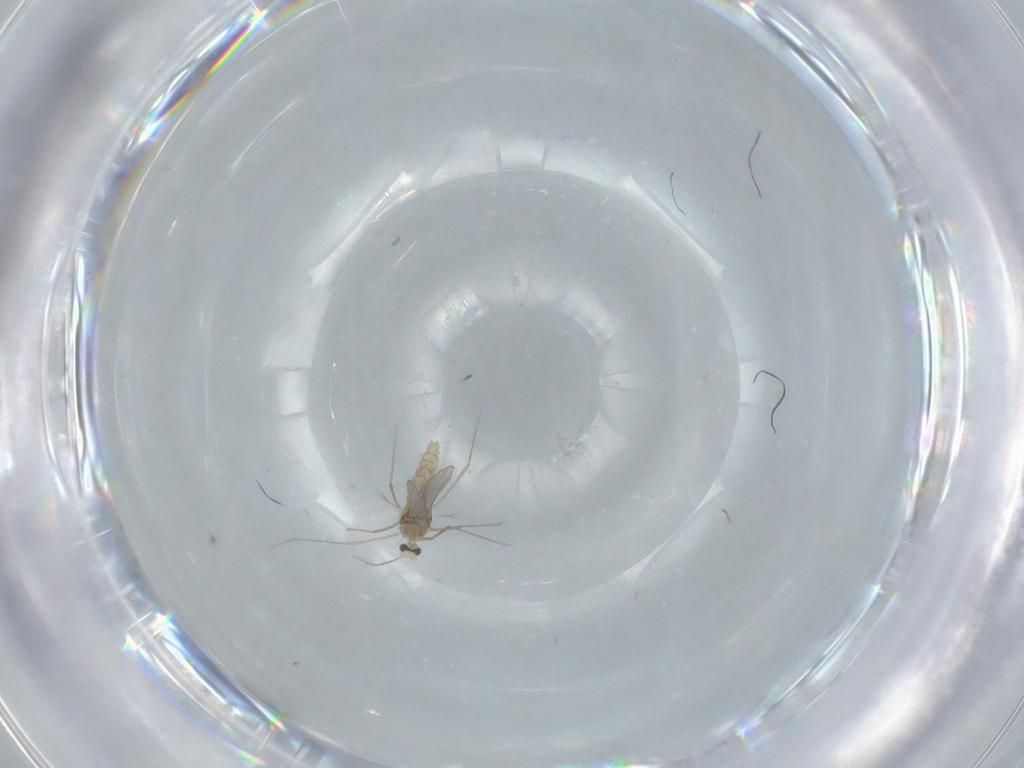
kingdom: Animalia
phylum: Arthropoda
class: Insecta
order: Diptera
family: Cecidomyiidae
